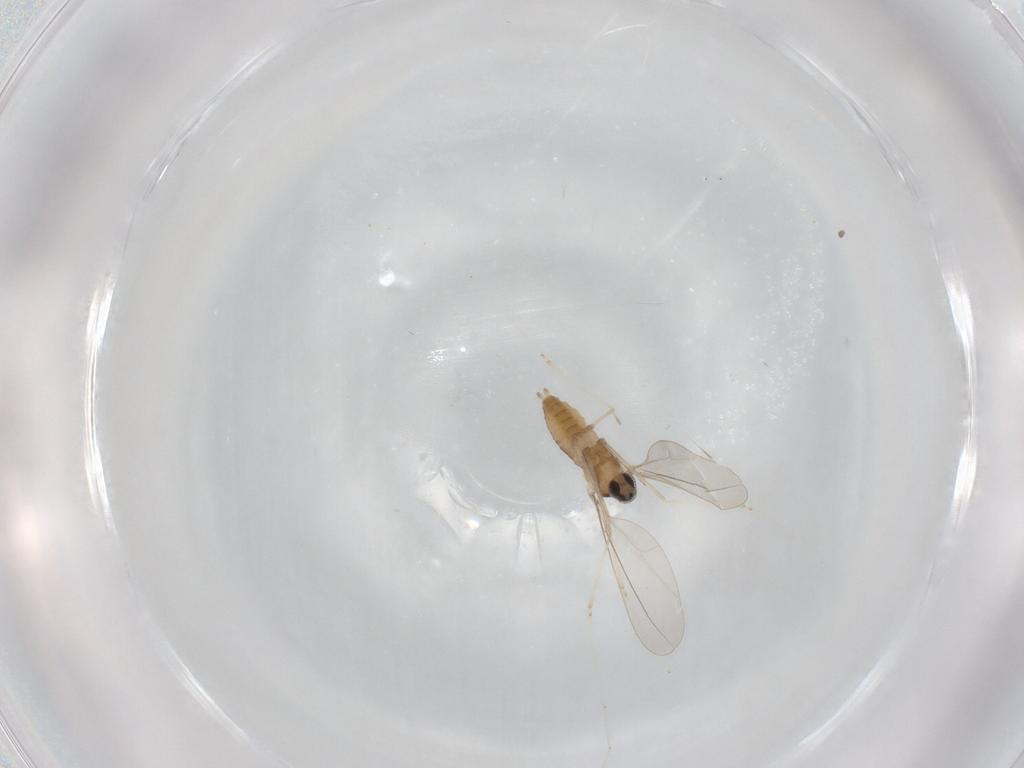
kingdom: Animalia
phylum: Arthropoda
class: Insecta
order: Diptera
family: Cecidomyiidae
